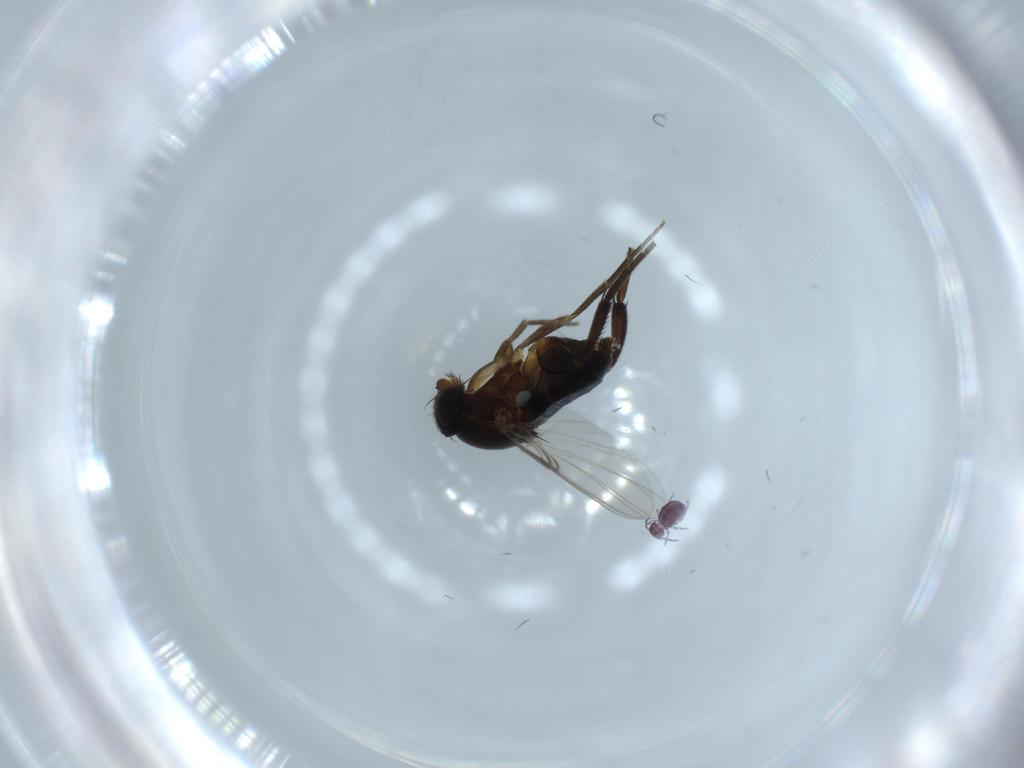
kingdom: Animalia
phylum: Arthropoda
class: Insecta
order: Diptera
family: Phoridae
